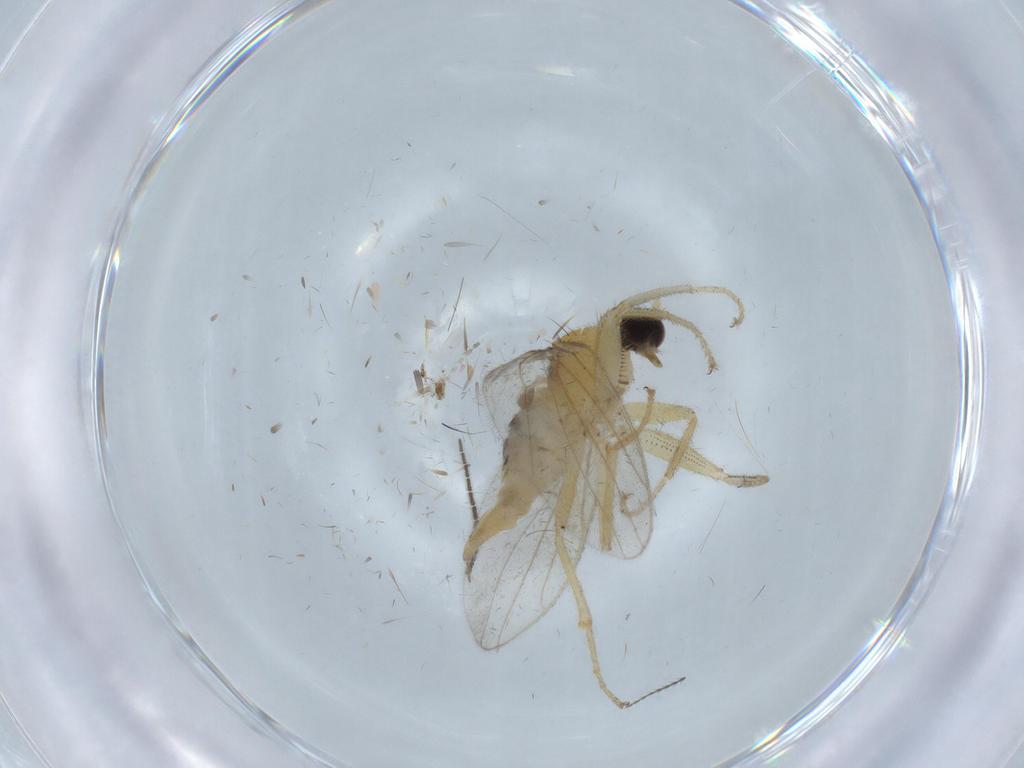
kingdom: Animalia
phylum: Arthropoda
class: Insecta
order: Diptera
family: Hybotidae
